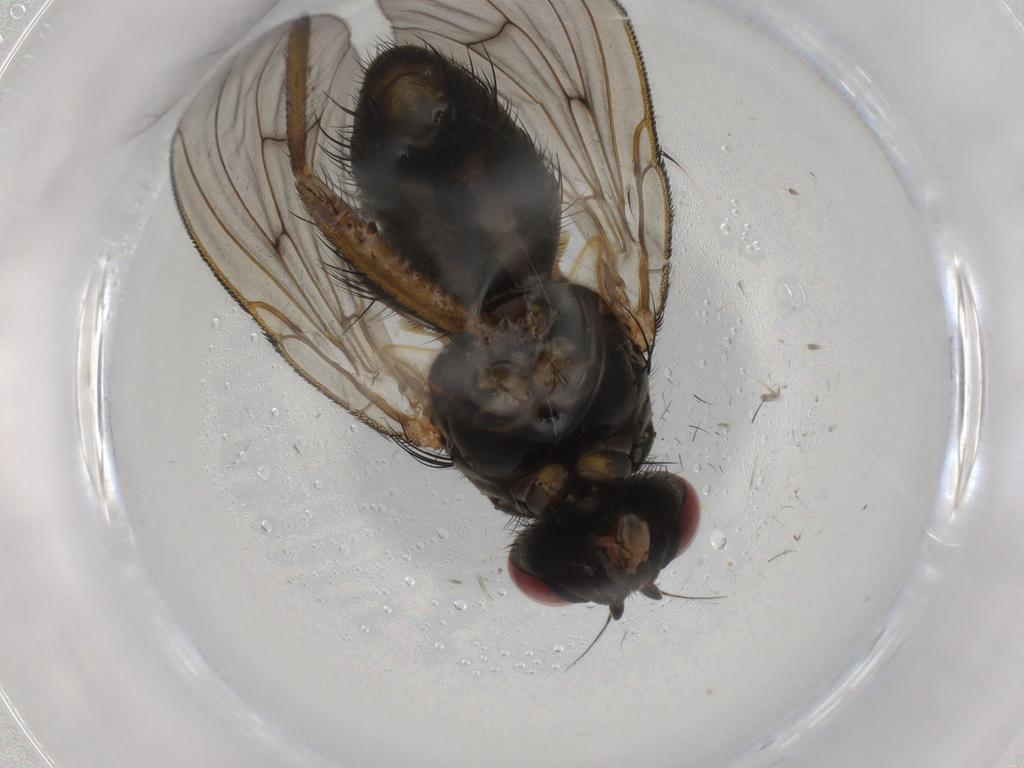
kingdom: Animalia
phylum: Arthropoda
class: Insecta
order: Diptera
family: Muscidae
